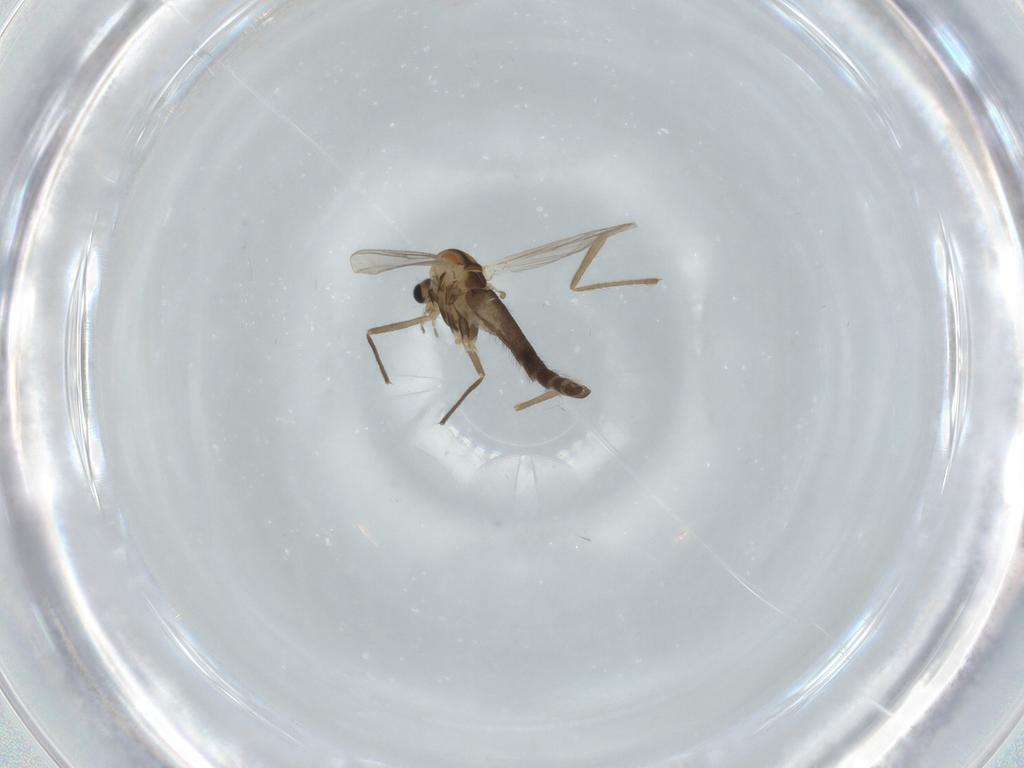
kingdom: Animalia
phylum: Arthropoda
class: Insecta
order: Diptera
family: Chironomidae
